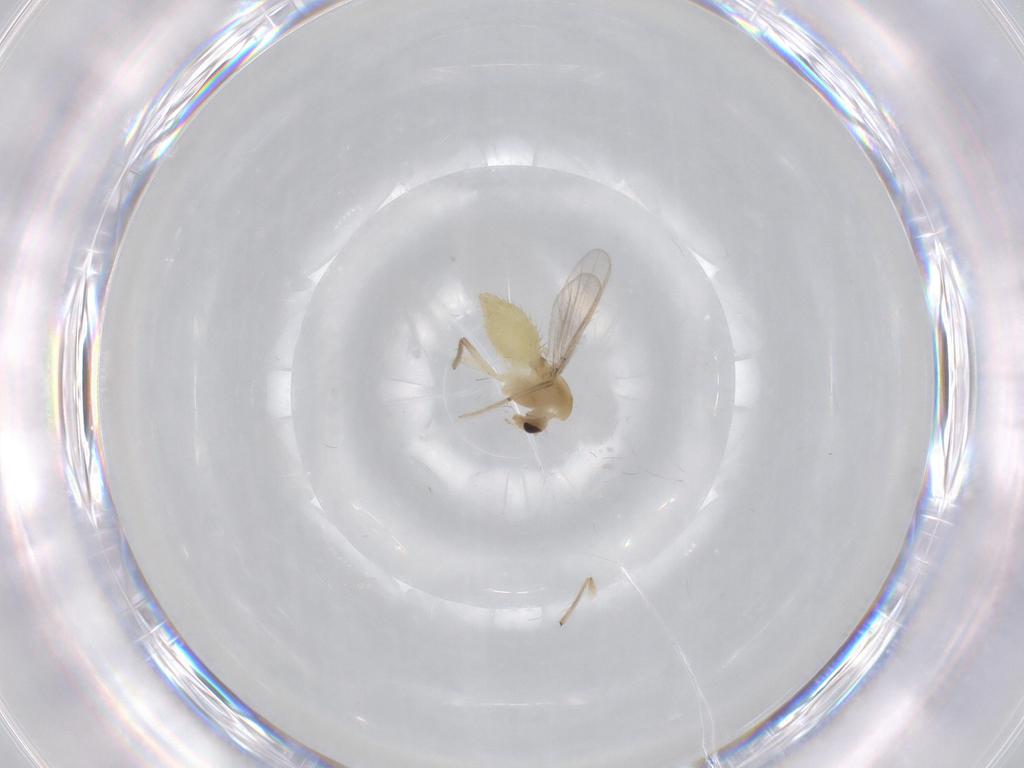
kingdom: Animalia
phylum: Arthropoda
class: Insecta
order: Diptera
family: Chironomidae
